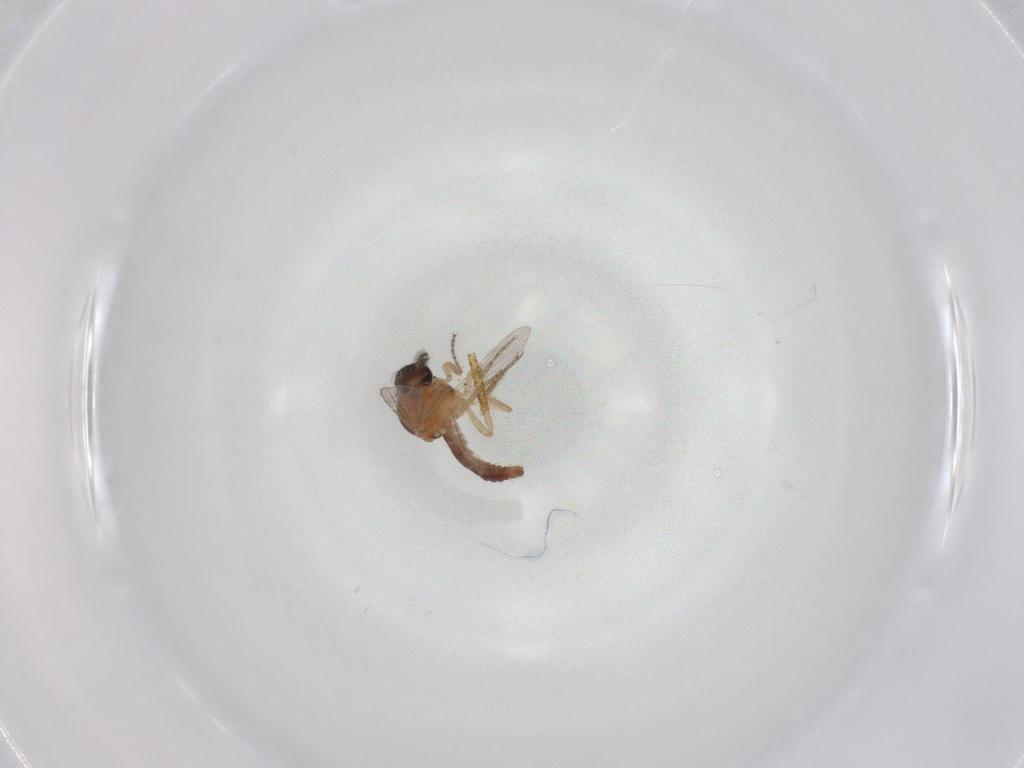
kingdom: Animalia
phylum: Arthropoda
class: Insecta
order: Diptera
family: Ceratopogonidae
